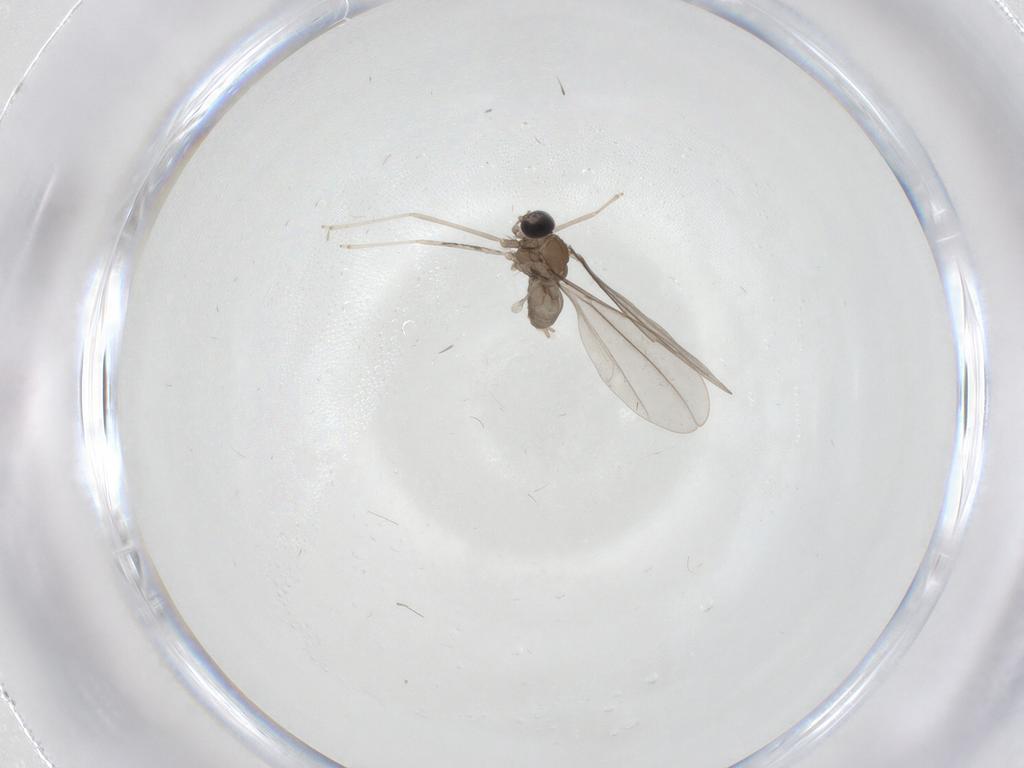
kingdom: Animalia
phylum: Arthropoda
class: Insecta
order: Diptera
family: Cecidomyiidae
